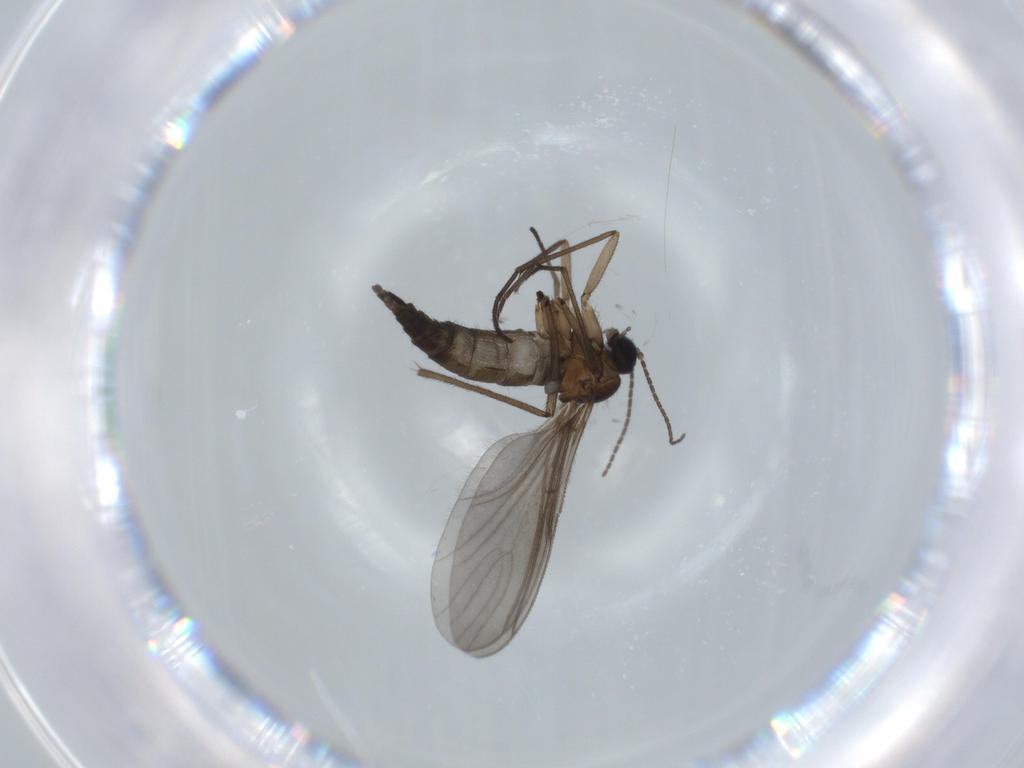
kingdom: Animalia
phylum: Arthropoda
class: Insecta
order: Diptera
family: Sciaridae
